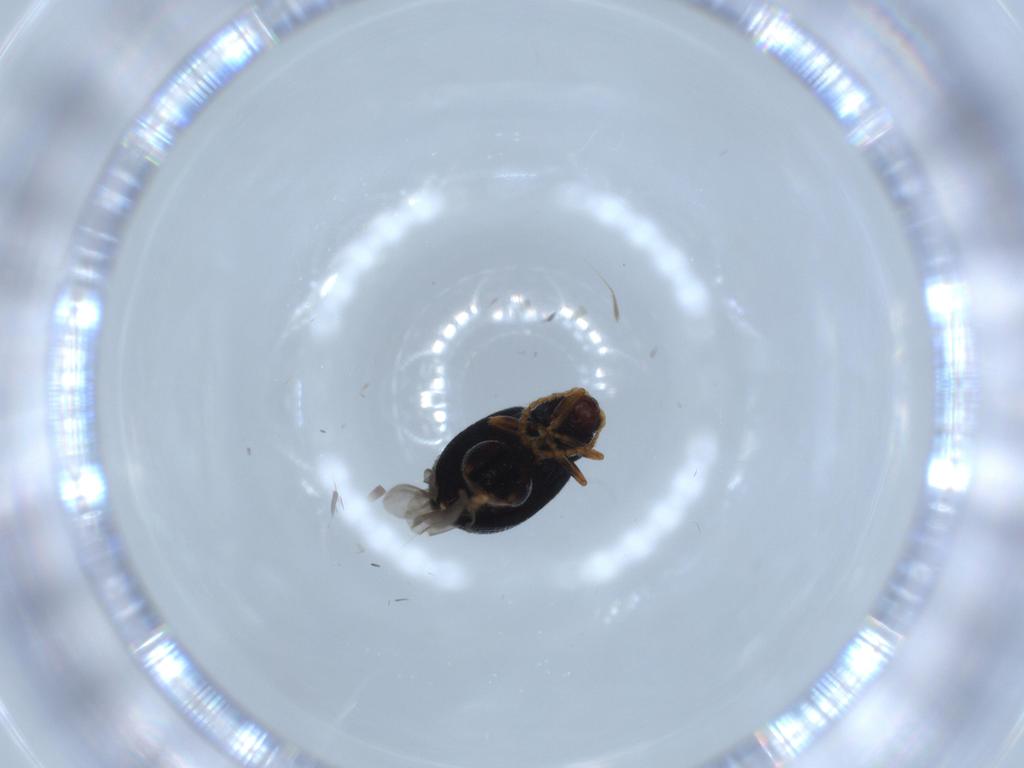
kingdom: Animalia
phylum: Arthropoda
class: Insecta
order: Coleoptera
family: Chrysomelidae
